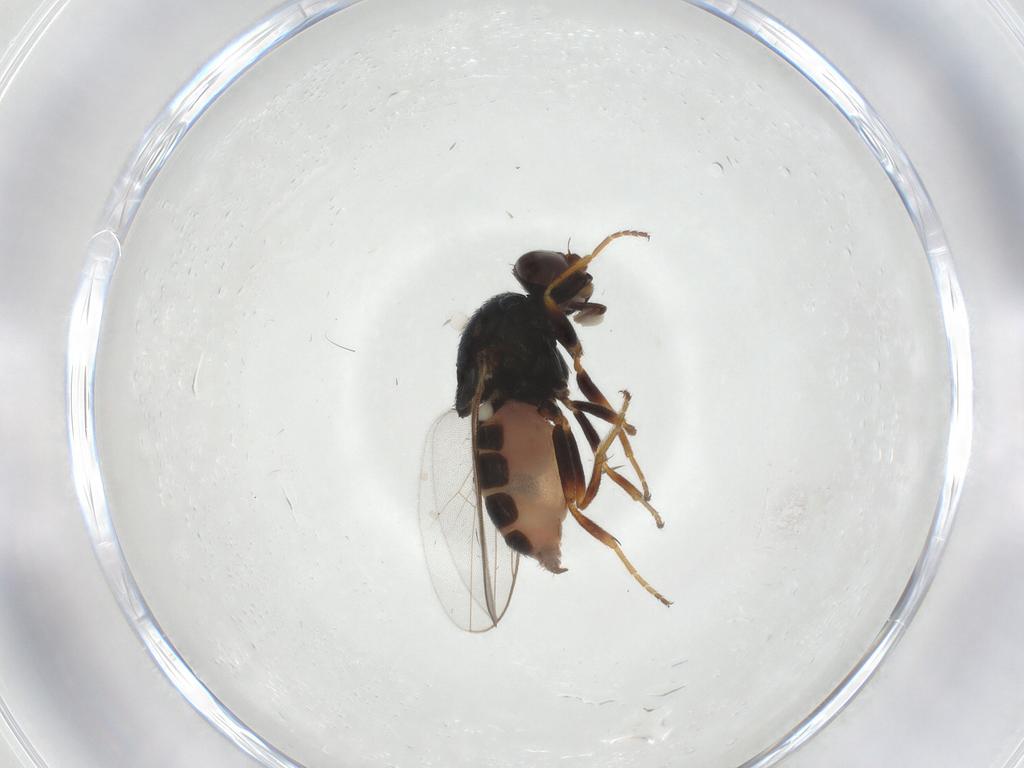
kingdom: Animalia
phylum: Arthropoda
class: Insecta
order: Diptera
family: Chloropidae
